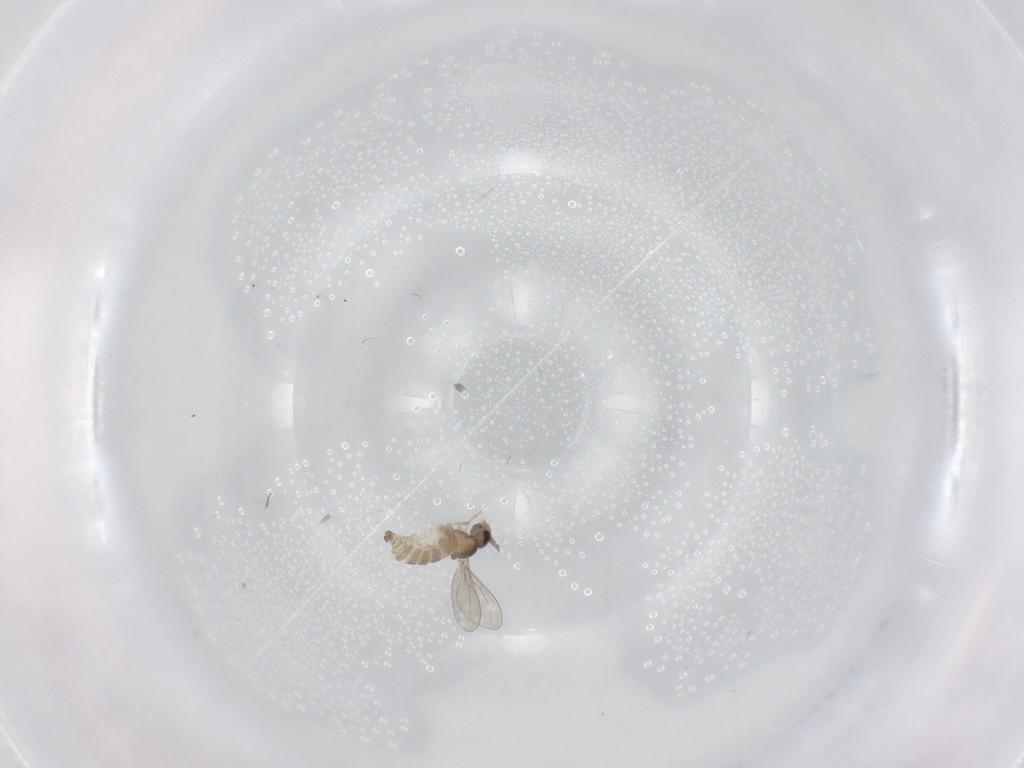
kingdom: Animalia
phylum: Arthropoda
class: Insecta
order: Diptera
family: Cecidomyiidae
